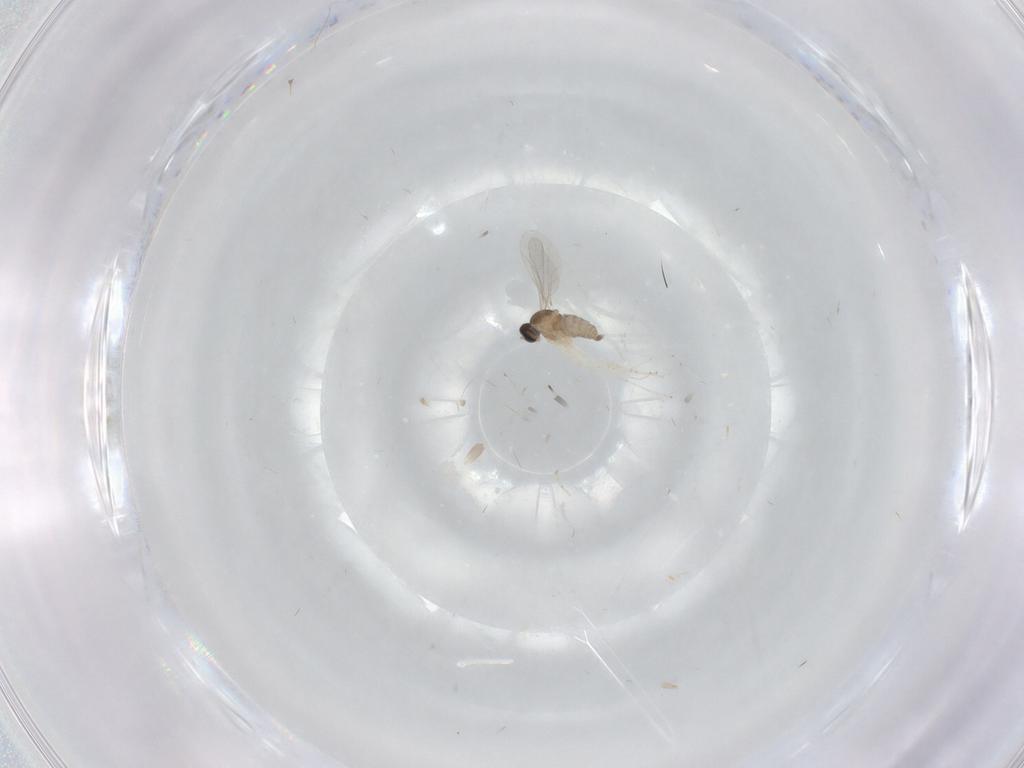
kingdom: Animalia
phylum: Arthropoda
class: Insecta
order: Diptera
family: Cecidomyiidae
